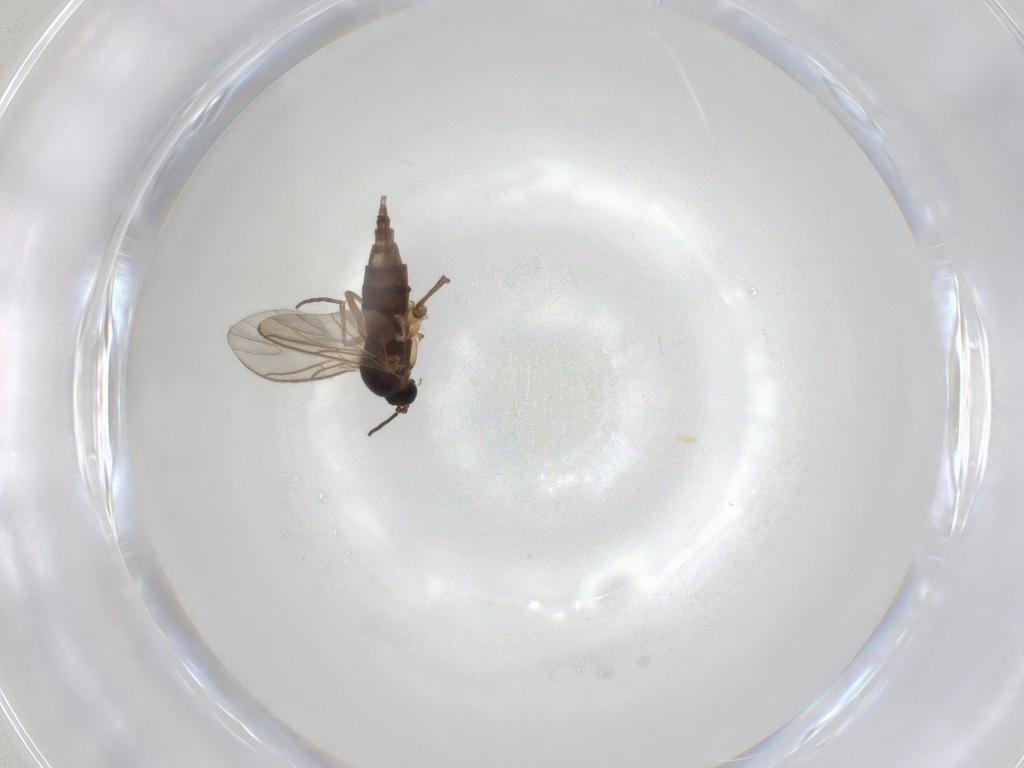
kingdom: Animalia
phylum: Arthropoda
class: Insecta
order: Diptera
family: Sciaridae
